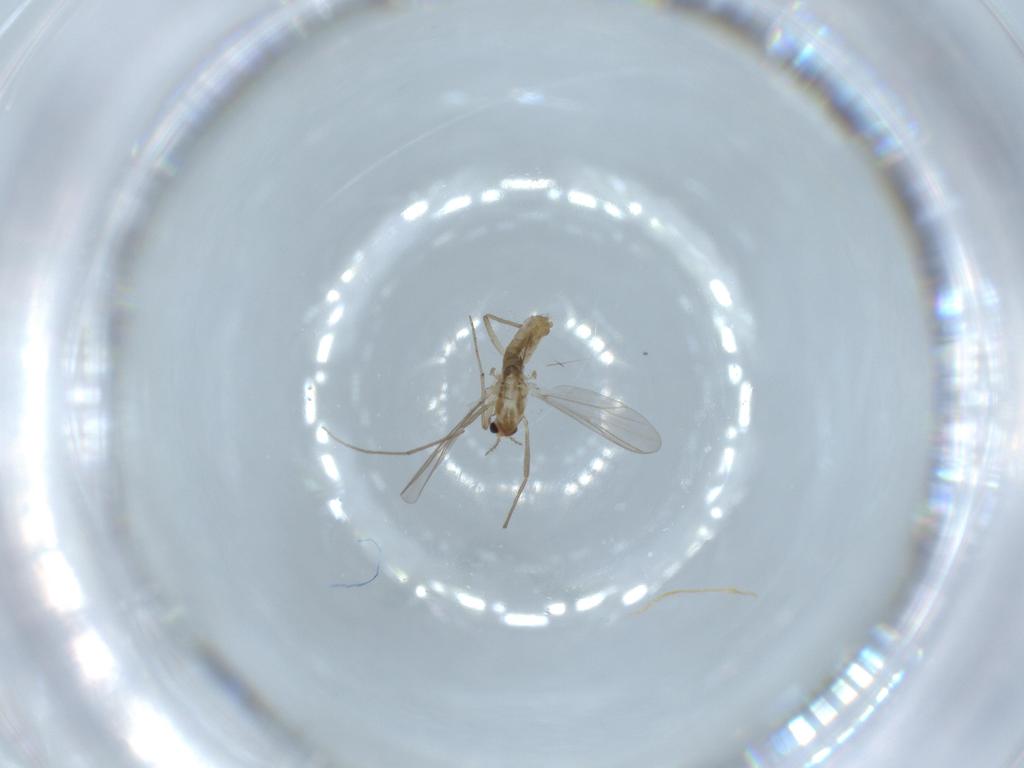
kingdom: Animalia
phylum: Arthropoda
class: Insecta
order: Diptera
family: Chironomidae
